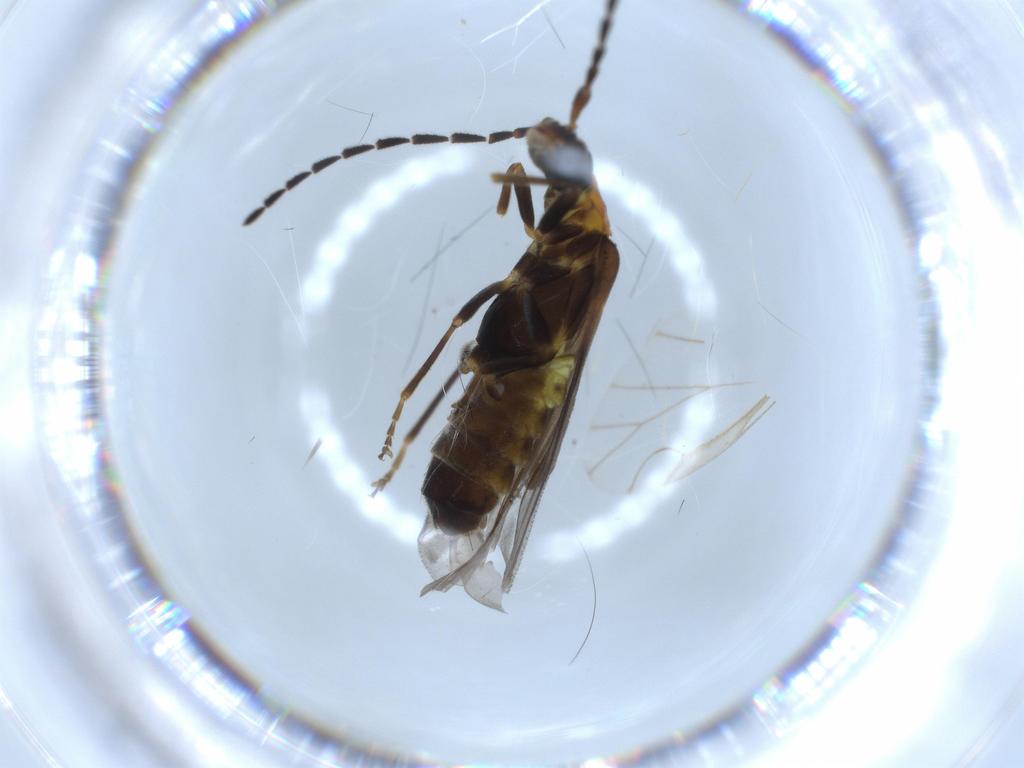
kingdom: Animalia
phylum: Arthropoda
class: Insecta
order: Coleoptera
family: Cantharidae
